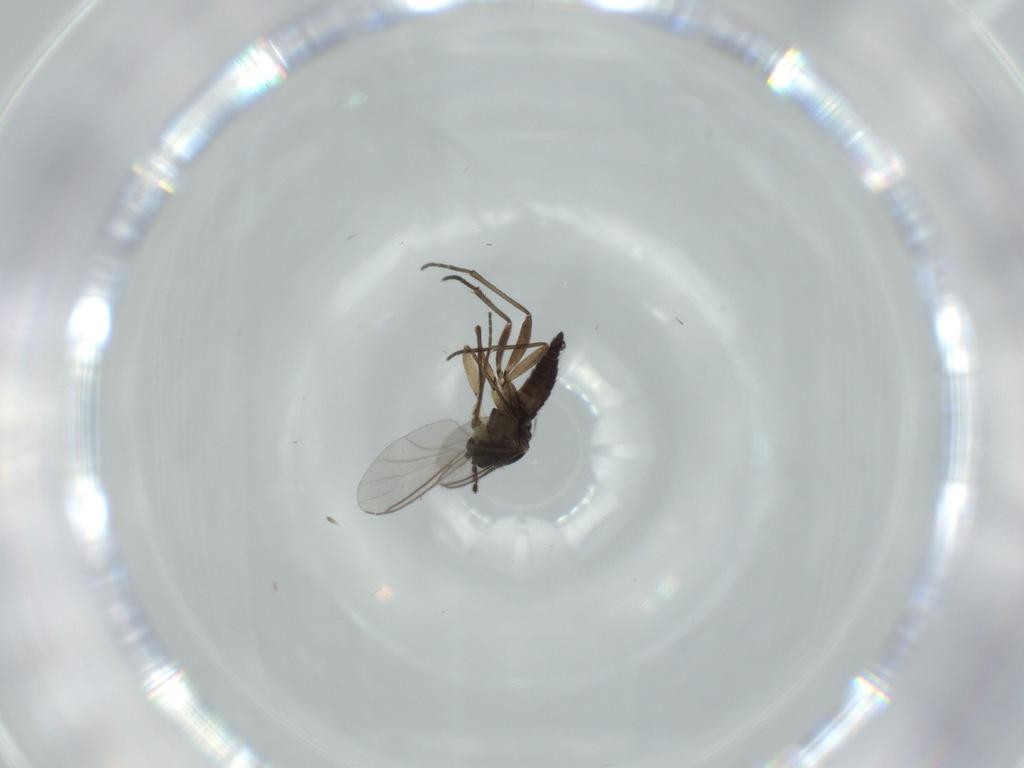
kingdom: Animalia
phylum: Arthropoda
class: Insecta
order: Diptera
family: Sciaridae
